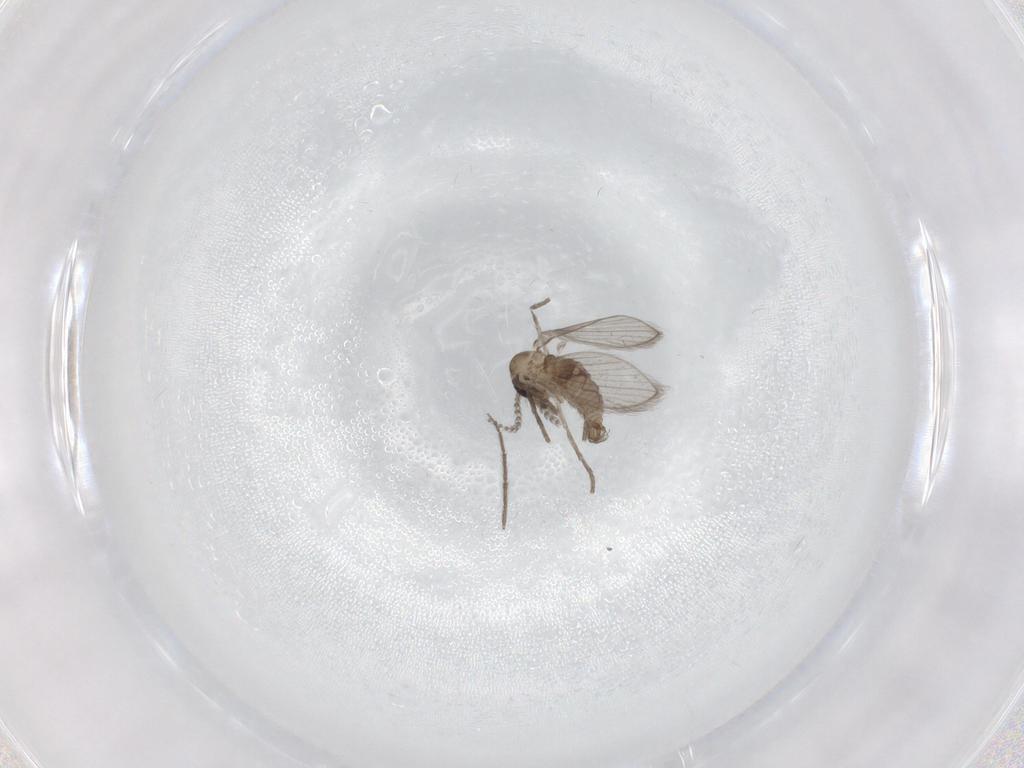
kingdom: Animalia
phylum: Arthropoda
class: Insecta
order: Diptera
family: Psychodidae
